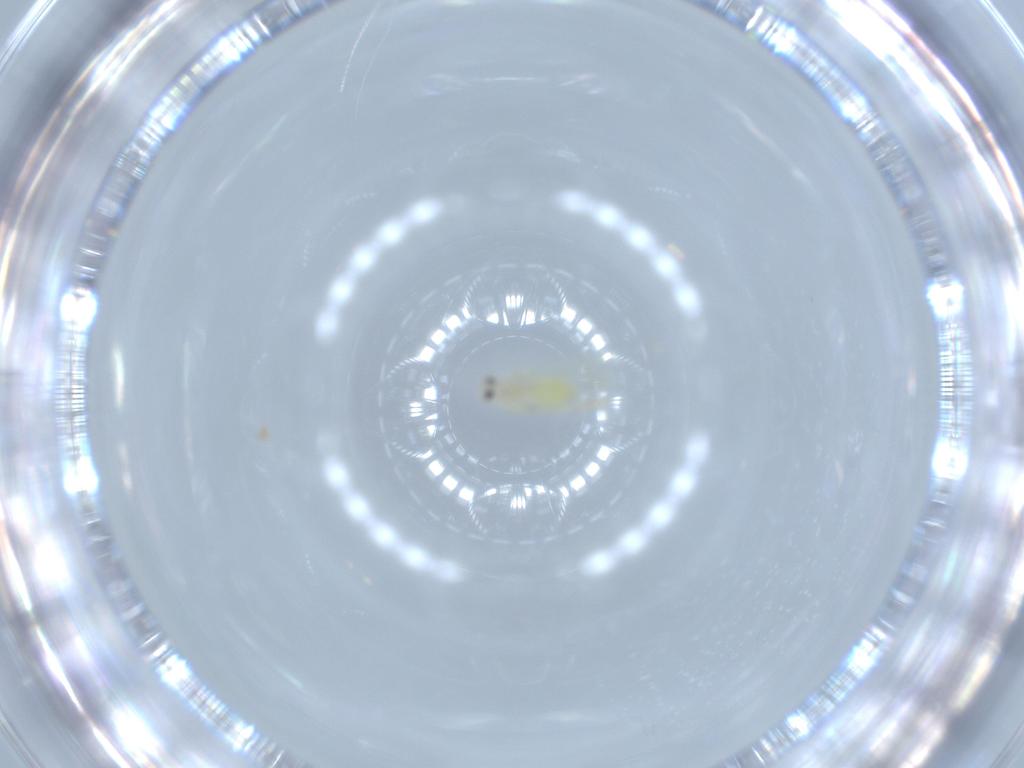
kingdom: Animalia
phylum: Arthropoda
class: Insecta
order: Hemiptera
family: Aleyrodidae
